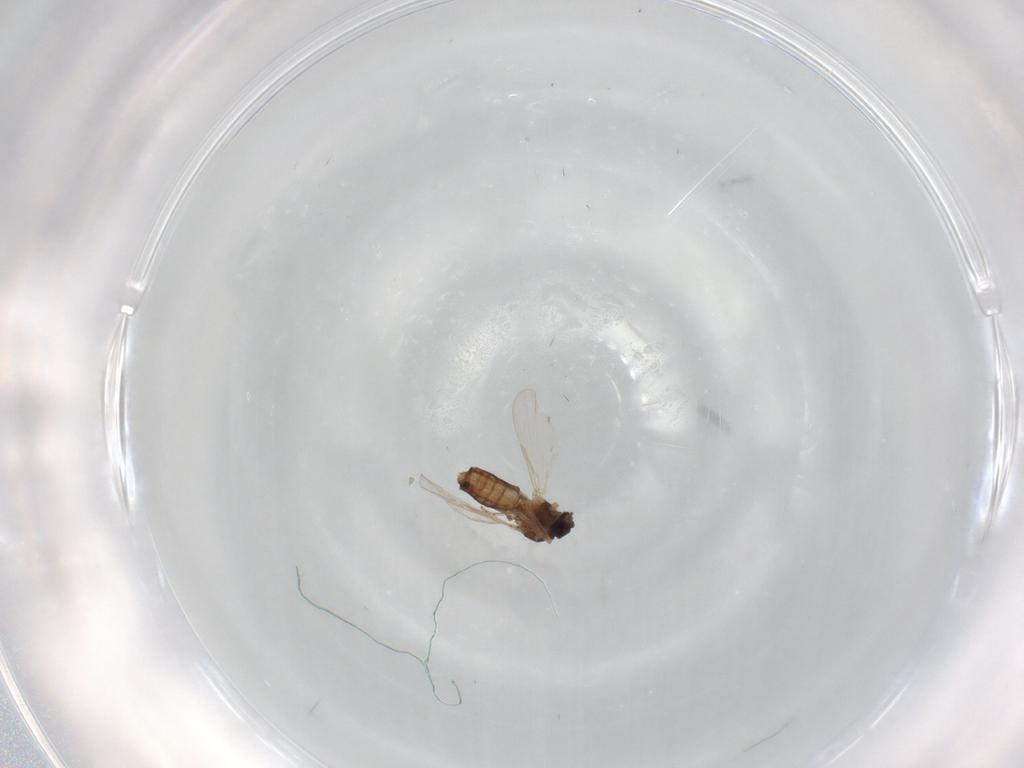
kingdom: Animalia
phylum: Arthropoda
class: Insecta
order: Diptera
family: Ceratopogonidae
